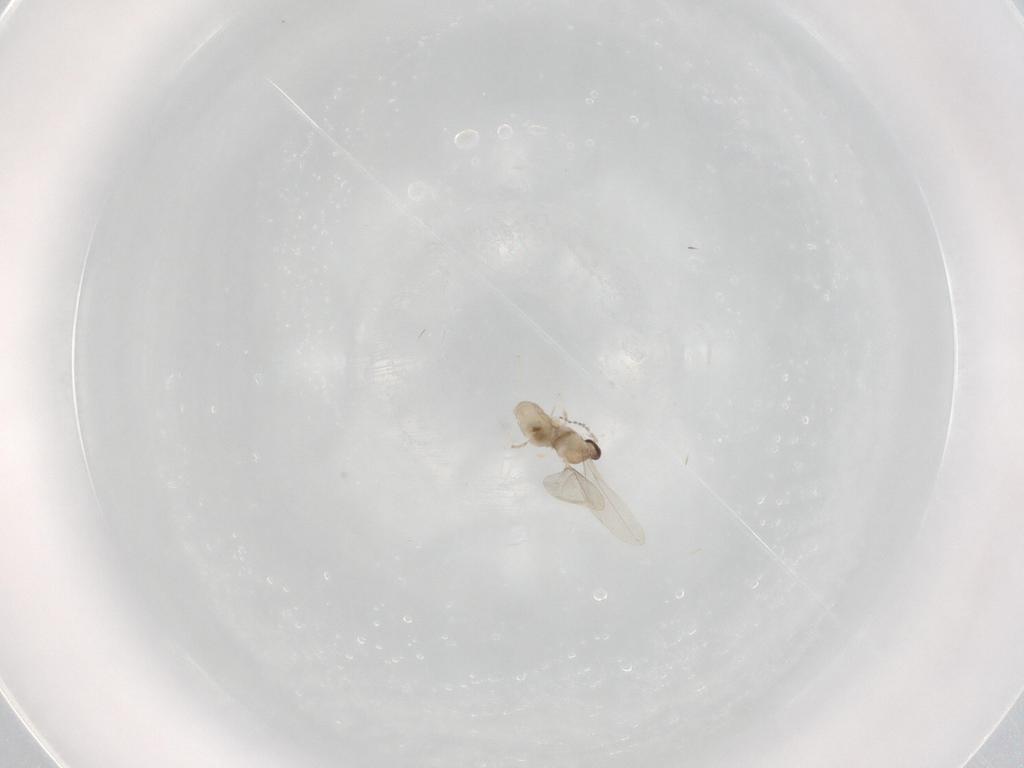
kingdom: Animalia
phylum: Arthropoda
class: Insecta
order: Diptera
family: Cecidomyiidae
